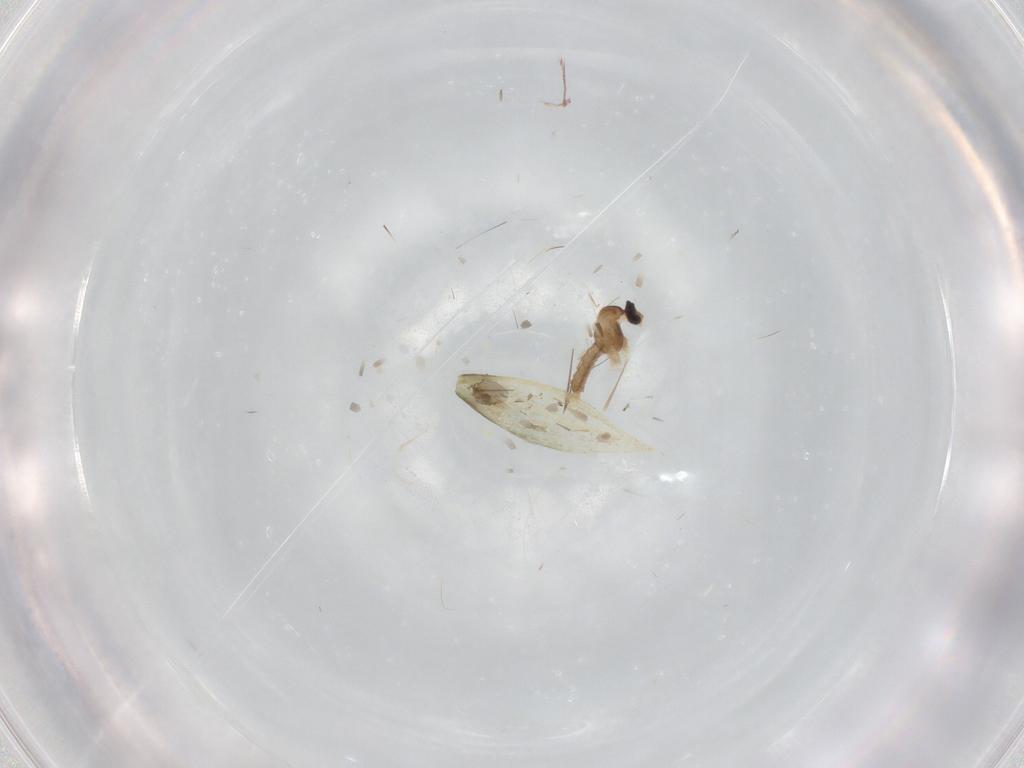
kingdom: Animalia
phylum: Arthropoda
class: Insecta
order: Diptera
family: Cecidomyiidae
